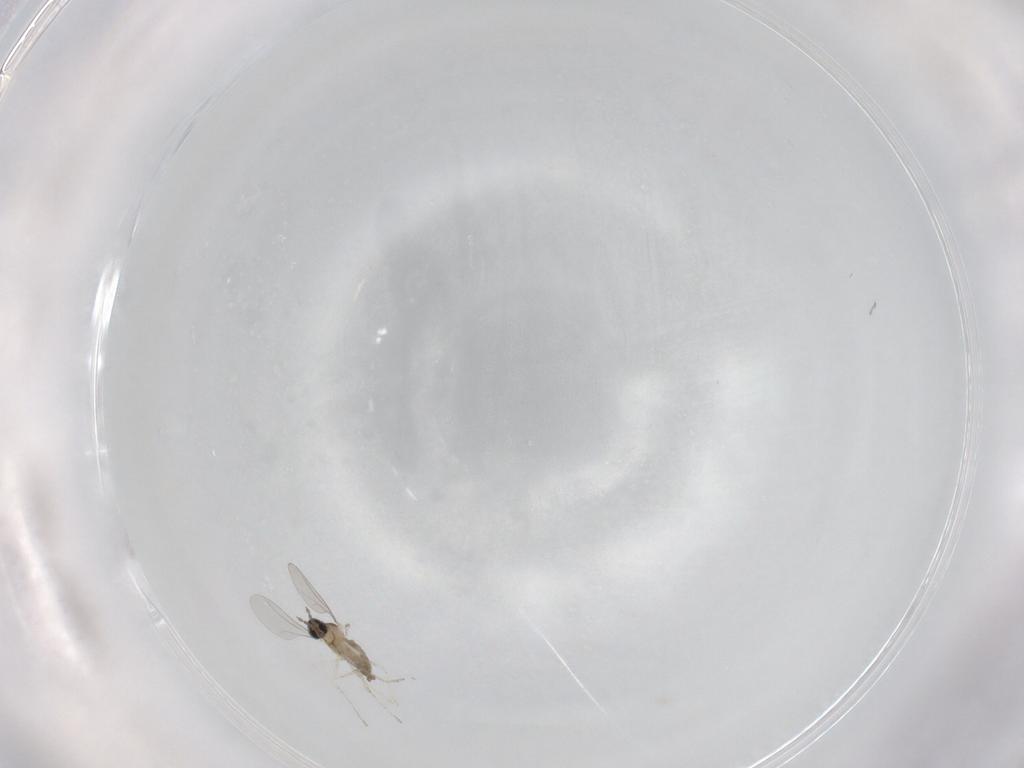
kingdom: Animalia
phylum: Arthropoda
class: Insecta
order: Diptera
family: Cecidomyiidae
